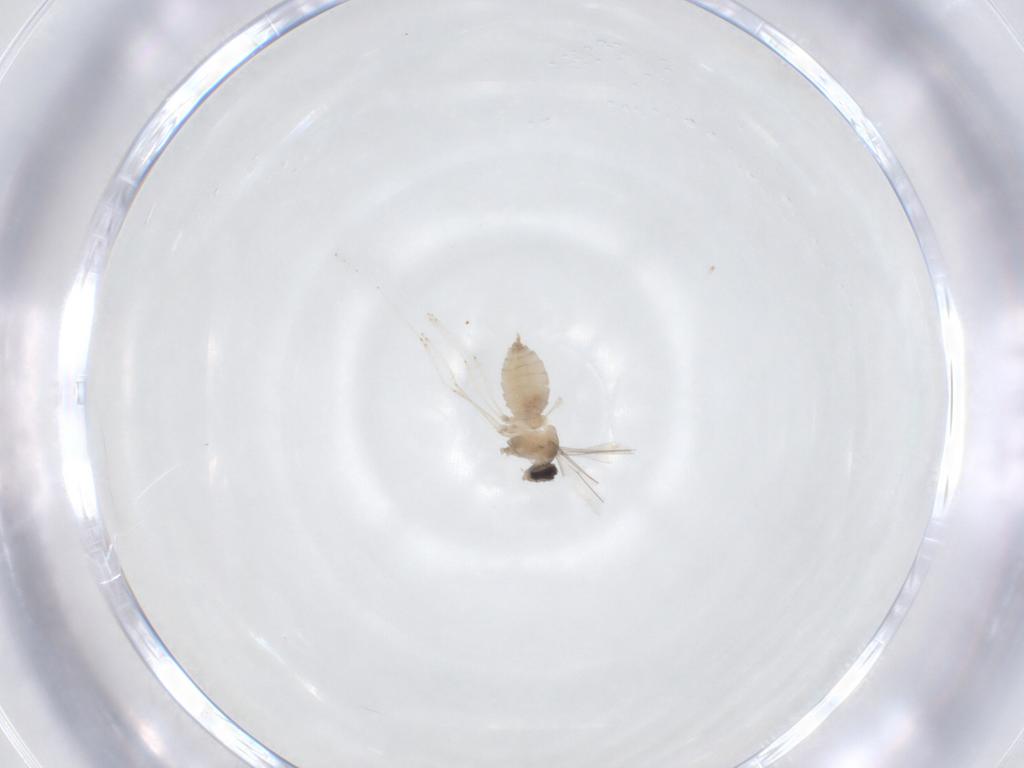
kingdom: Animalia
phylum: Arthropoda
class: Insecta
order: Diptera
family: Cecidomyiidae
